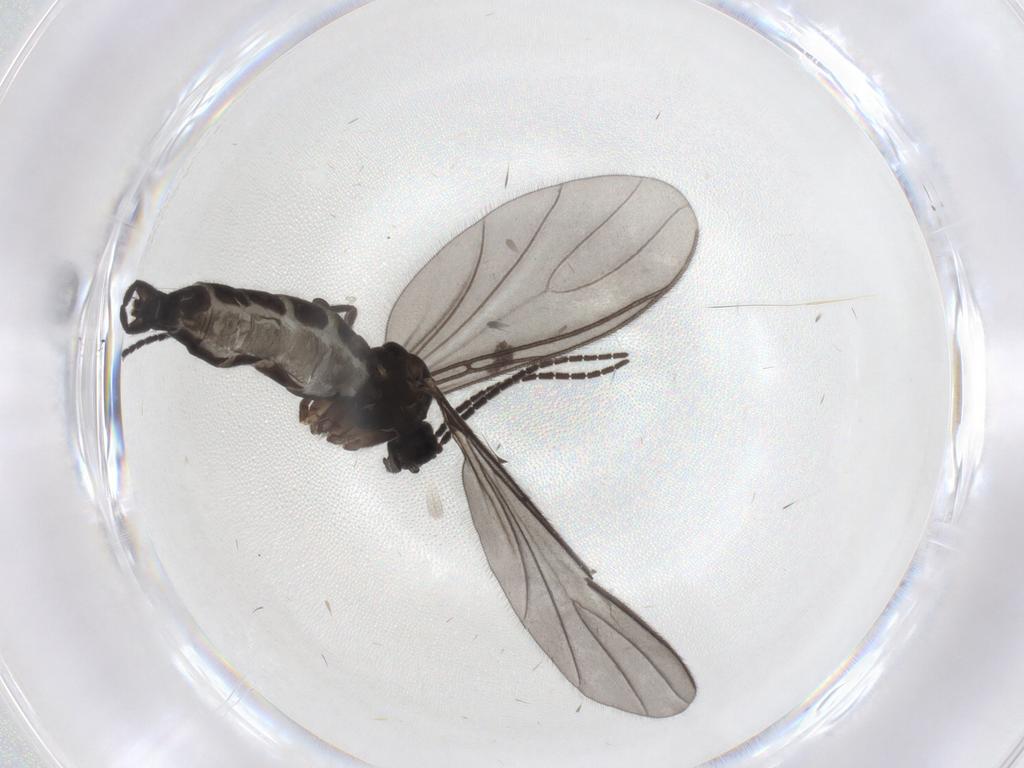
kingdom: Animalia
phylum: Arthropoda
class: Insecta
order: Diptera
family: Sciaridae
